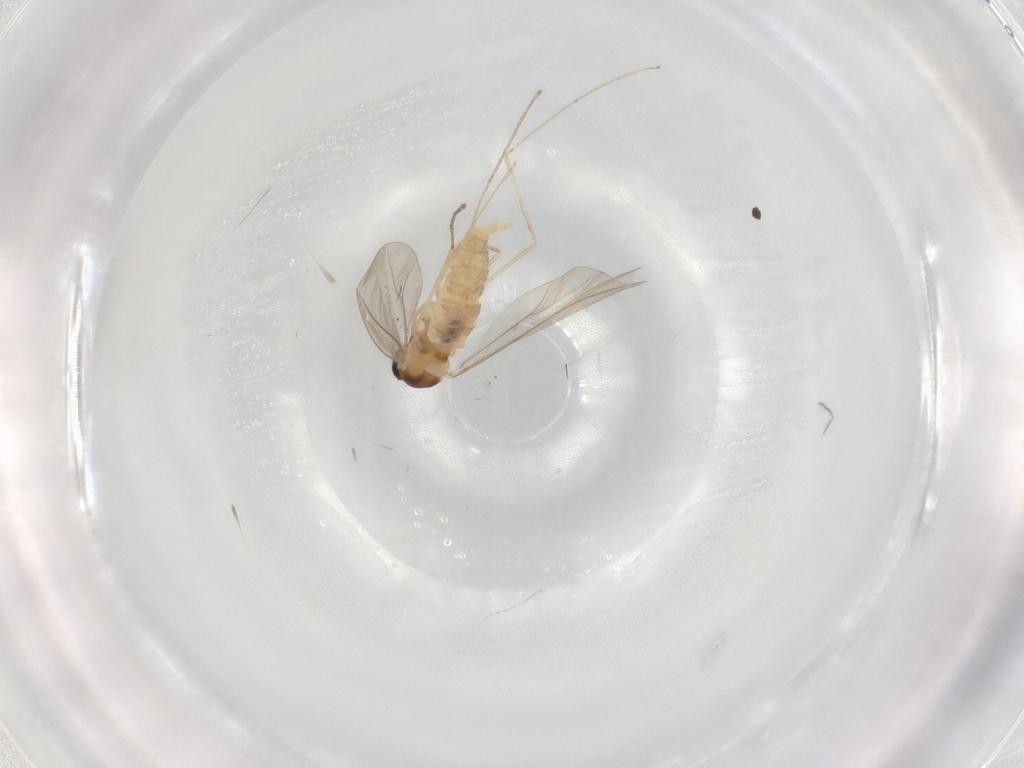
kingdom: Animalia
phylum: Arthropoda
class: Insecta
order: Diptera
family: Cecidomyiidae
